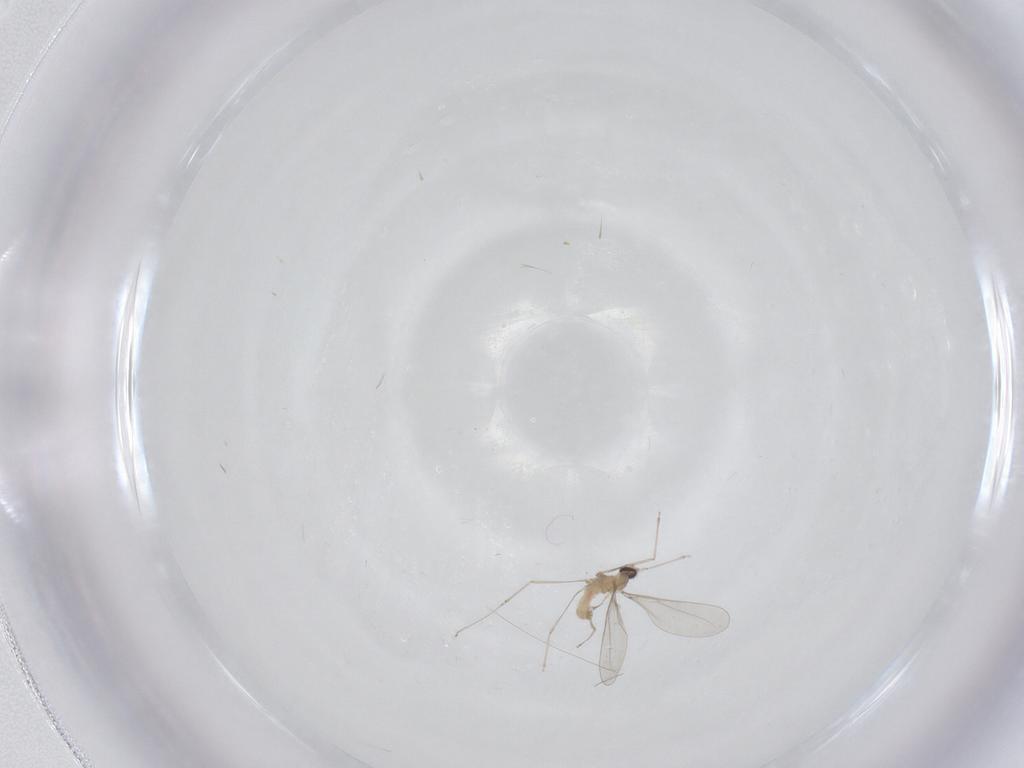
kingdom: Animalia
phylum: Arthropoda
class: Insecta
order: Diptera
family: Cecidomyiidae
